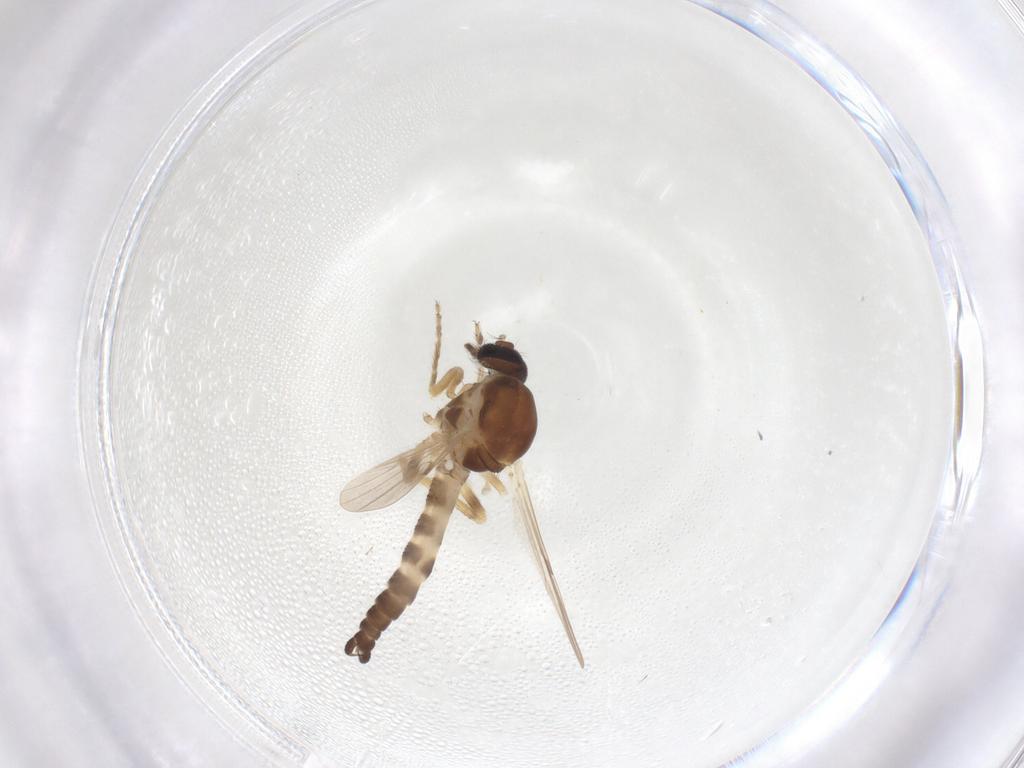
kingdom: Animalia
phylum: Arthropoda
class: Insecta
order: Diptera
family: Ceratopogonidae
